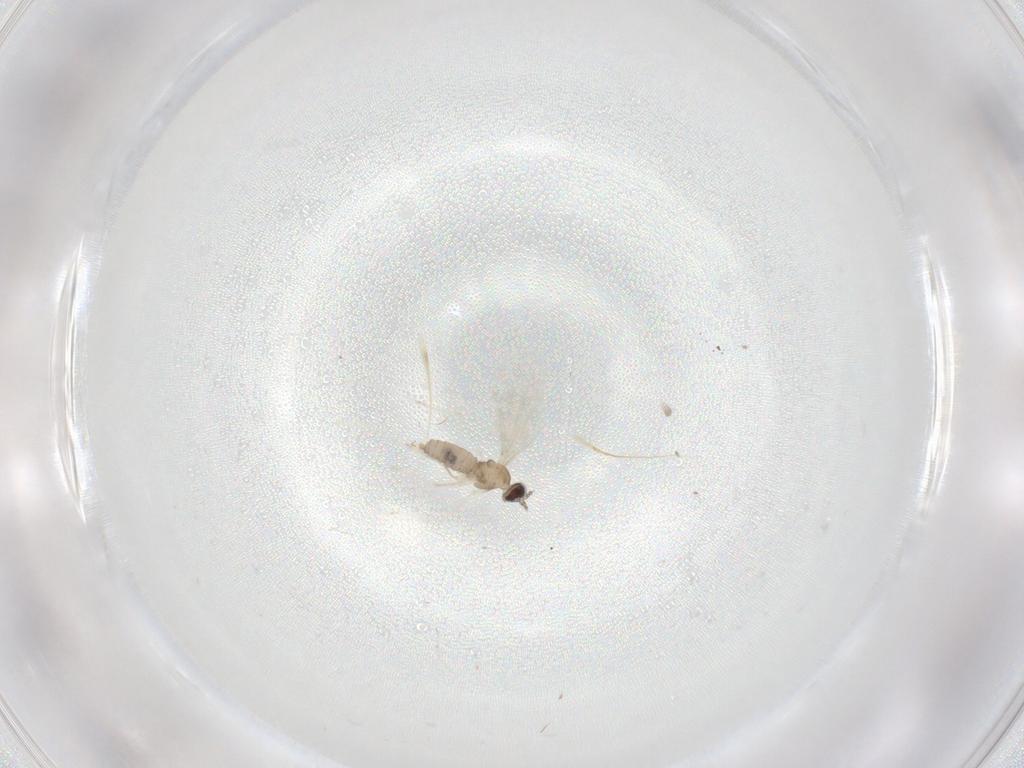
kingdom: Animalia
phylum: Arthropoda
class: Insecta
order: Diptera
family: Cecidomyiidae
